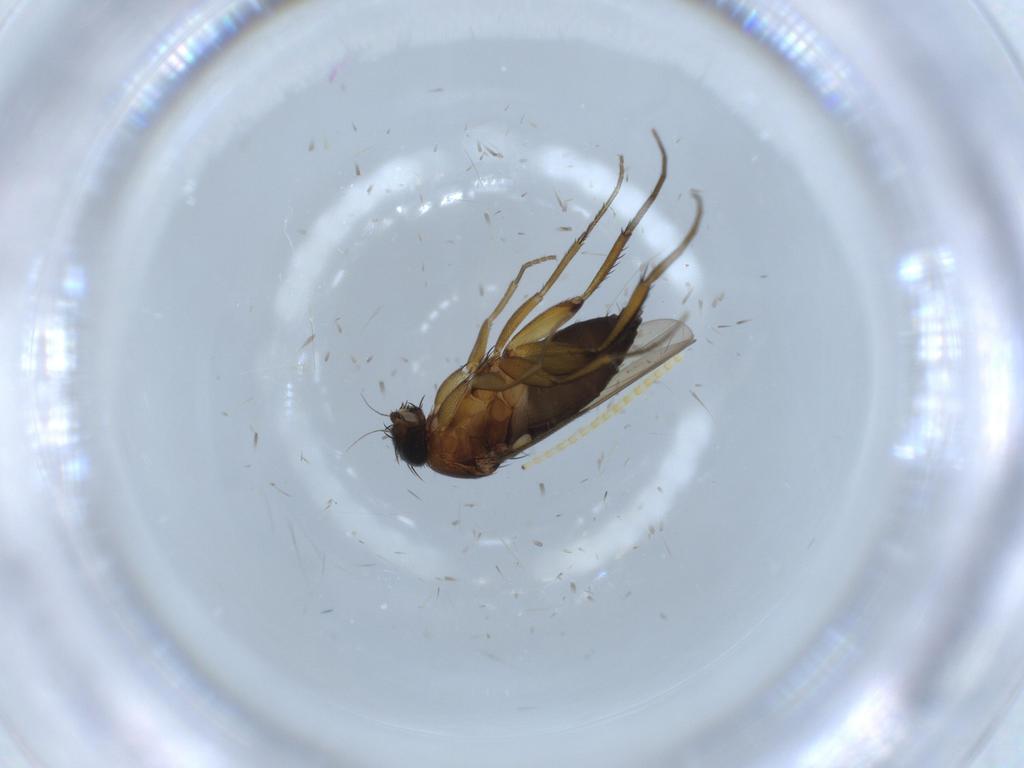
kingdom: Animalia
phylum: Arthropoda
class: Insecta
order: Diptera
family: Phoridae
